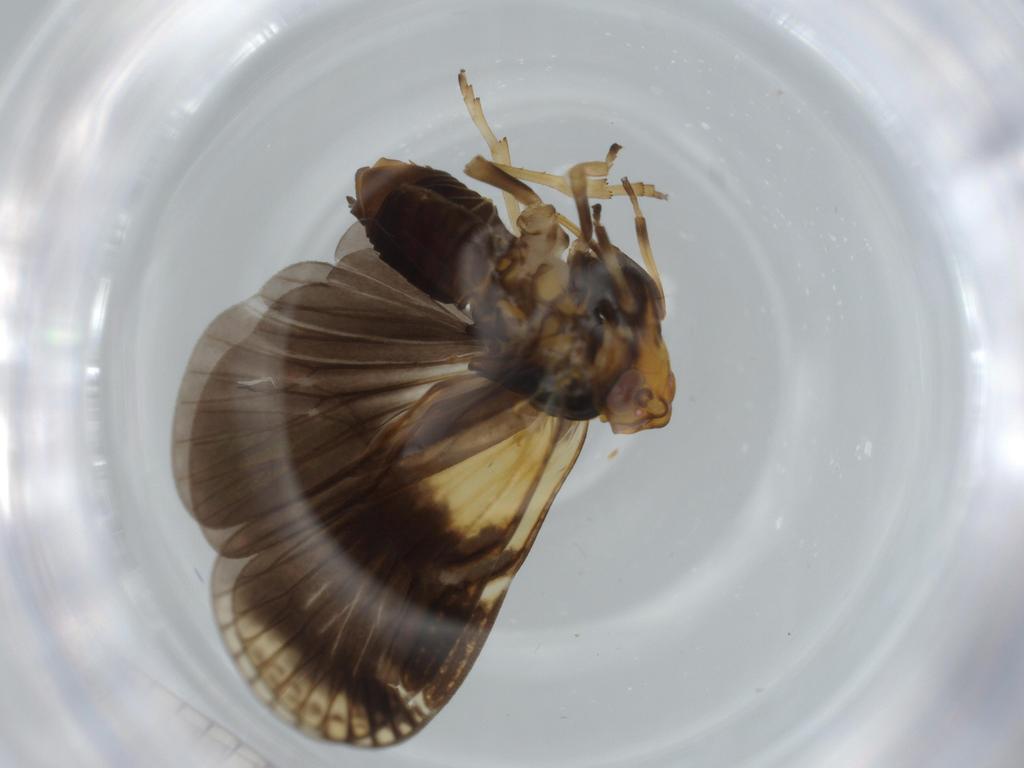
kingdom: Animalia
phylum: Arthropoda
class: Insecta
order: Hemiptera
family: Cixiidae
